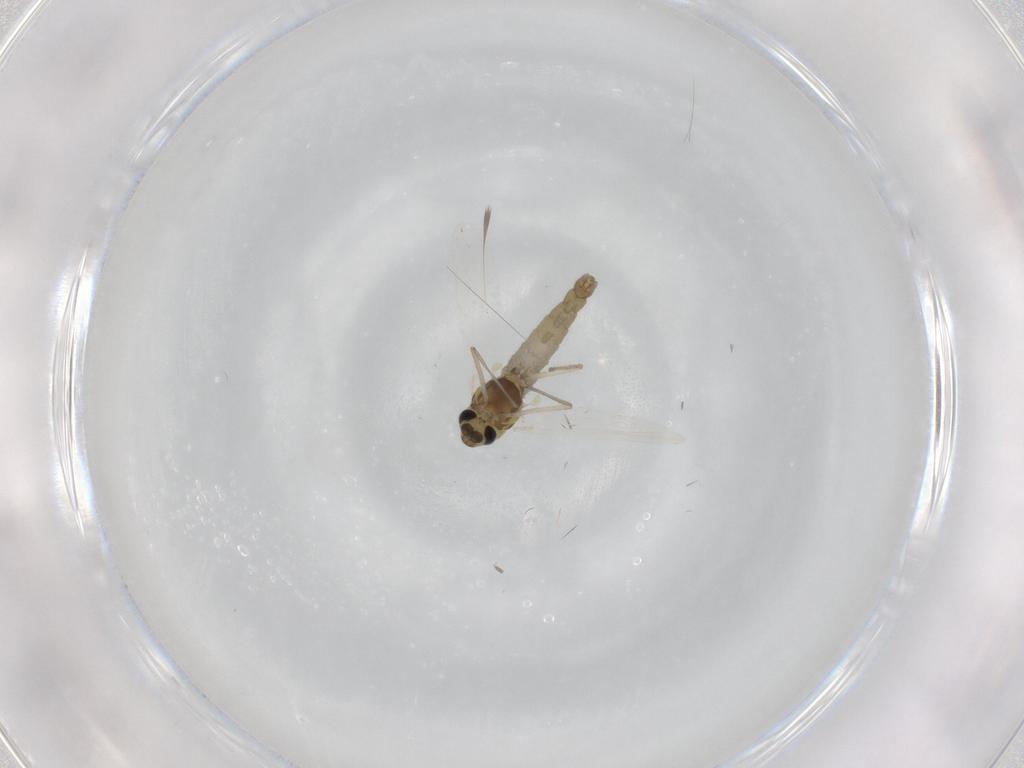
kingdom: Animalia
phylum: Arthropoda
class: Insecta
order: Diptera
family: Chironomidae
